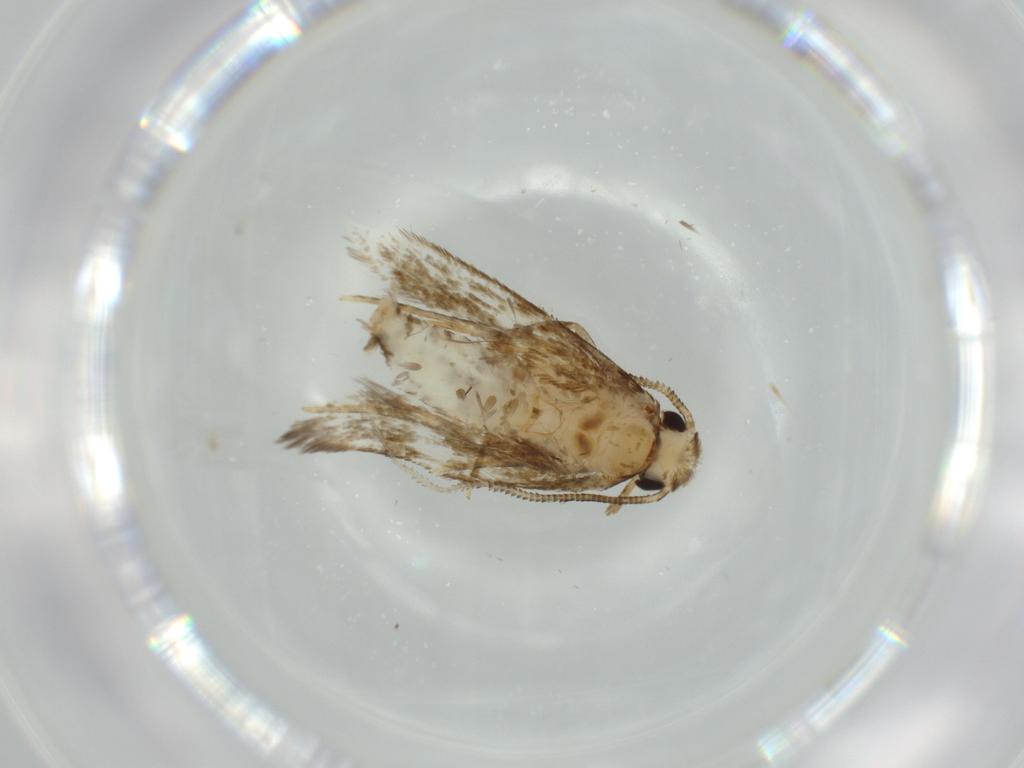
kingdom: Animalia
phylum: Arthropoda
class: Insecta
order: Lepidoptera
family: Tineidae
